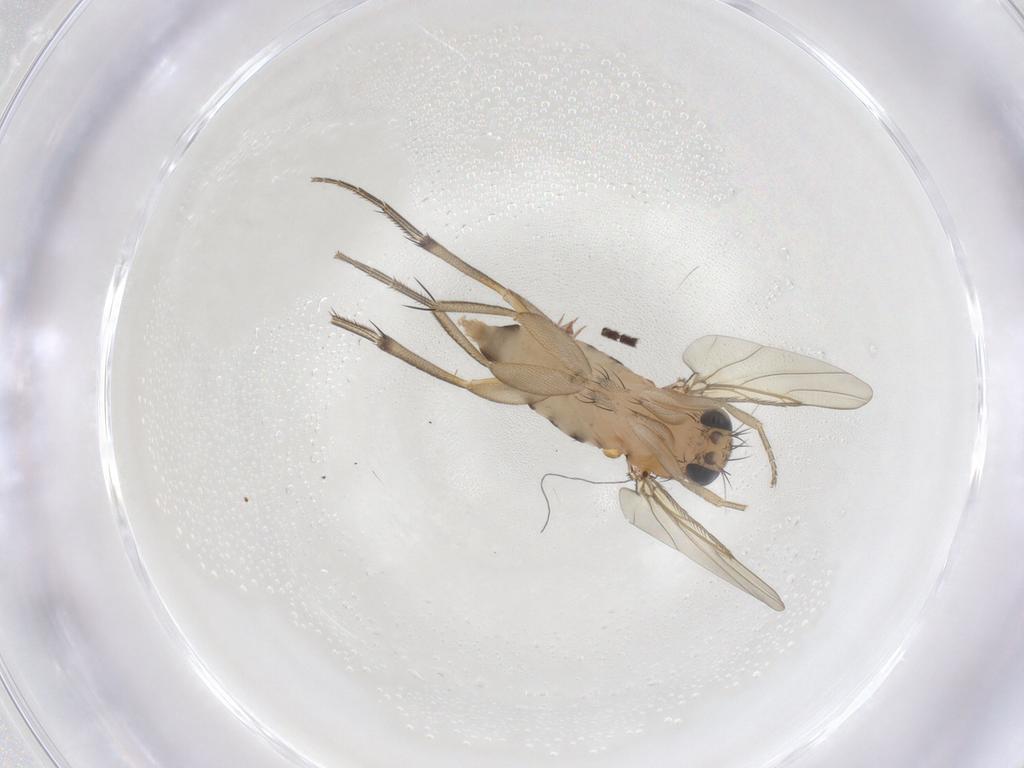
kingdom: Animalia
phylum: Arthropoda
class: Insecta
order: Diptera
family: Phoridae
